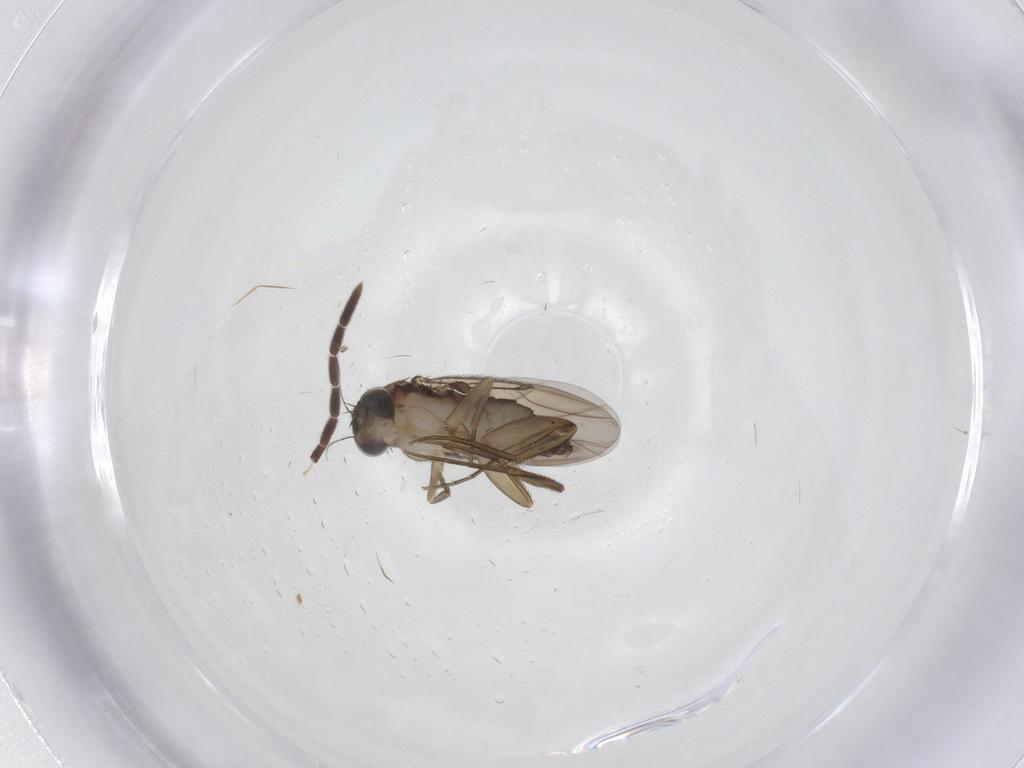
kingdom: Animalia
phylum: Arthropoda
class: Insecta
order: Diptera
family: Phoridae
